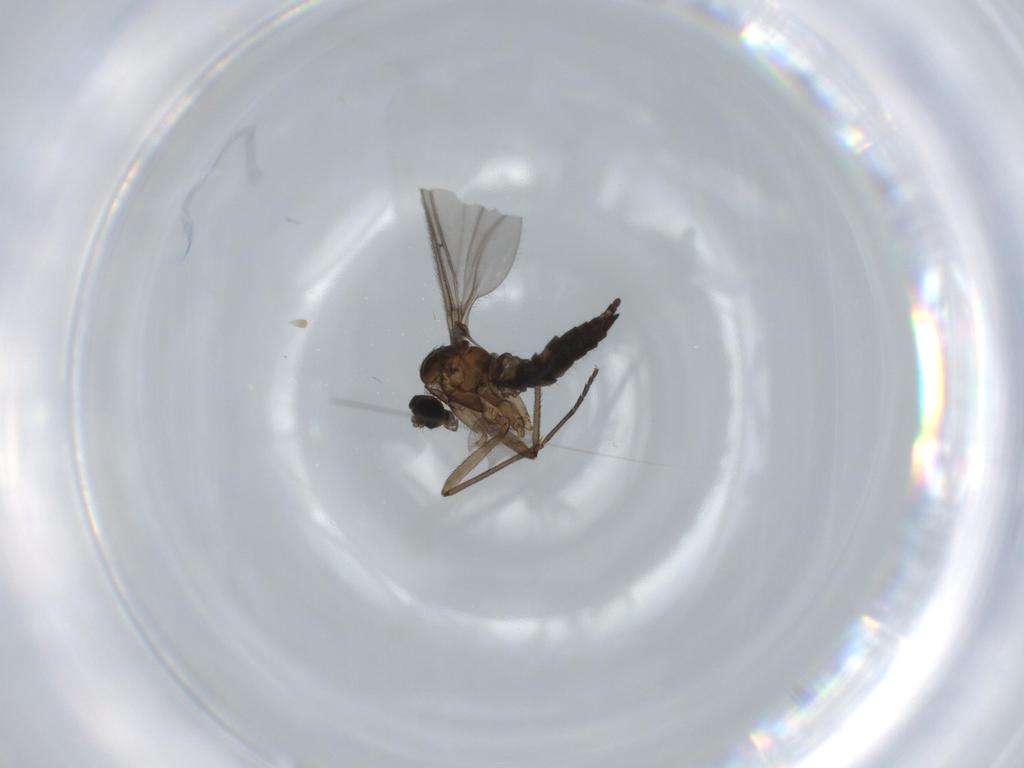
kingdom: Animalia
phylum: Arthropoda
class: Insecta
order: Diptera
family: Sciaridae
